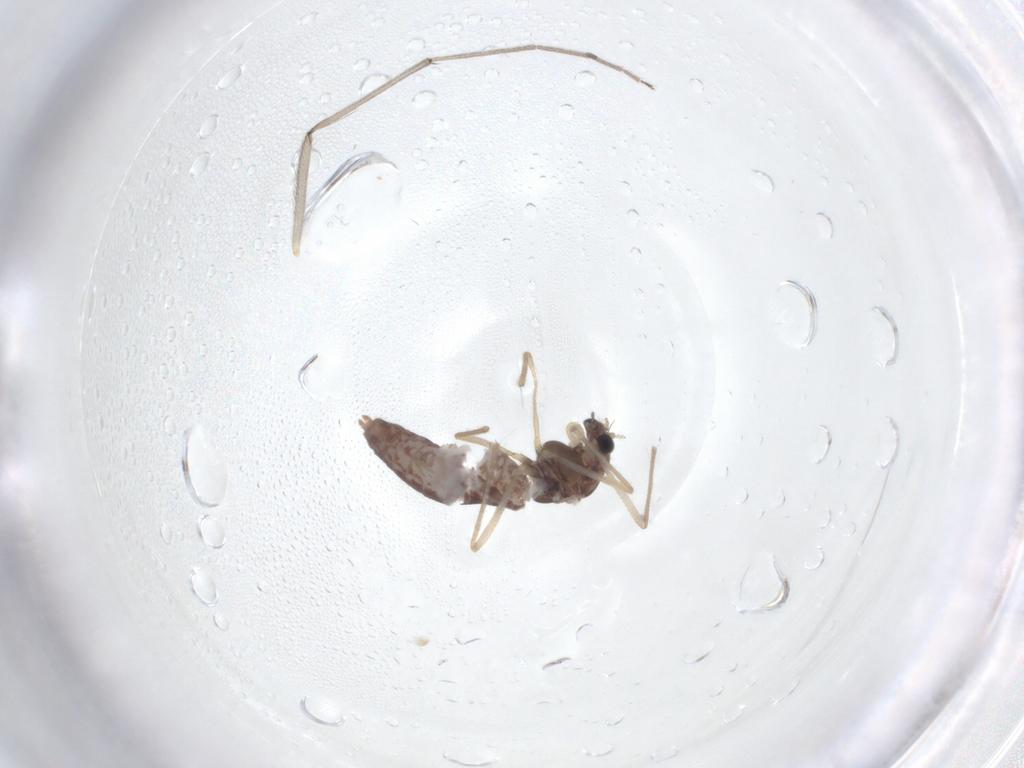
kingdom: Animalia
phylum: Arthropoda
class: Insecta
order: Diptera
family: Chironomidae
